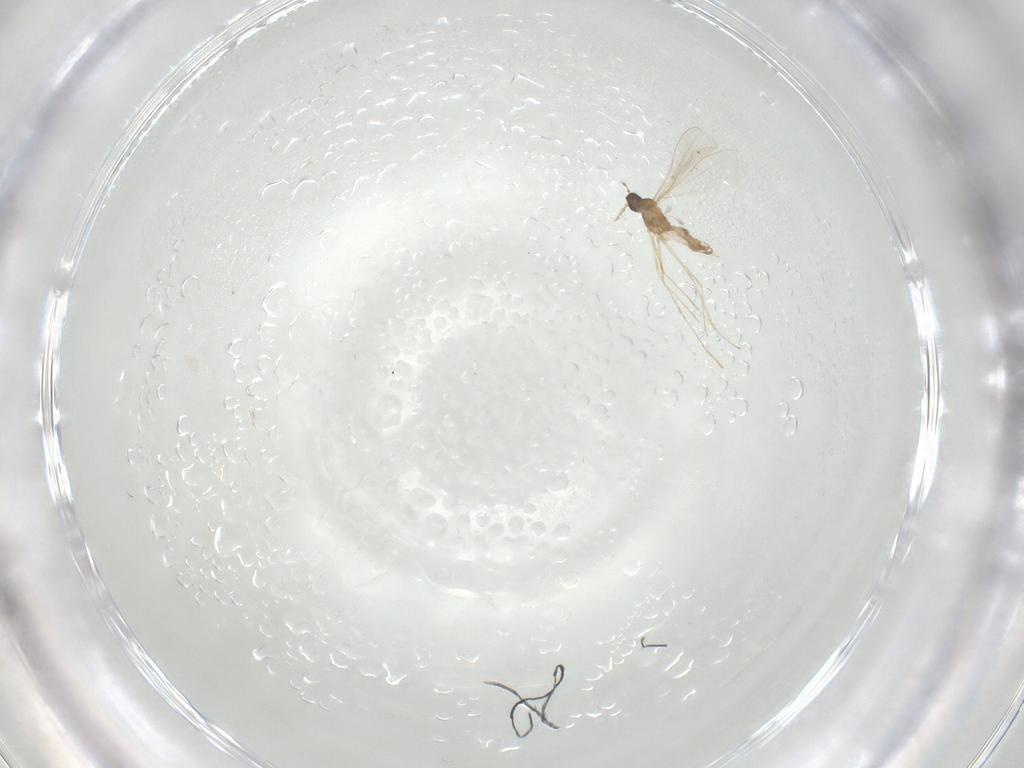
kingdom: Animalia
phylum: Arthropoda
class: Insecta
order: Diptera
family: Cecidomyiidae
